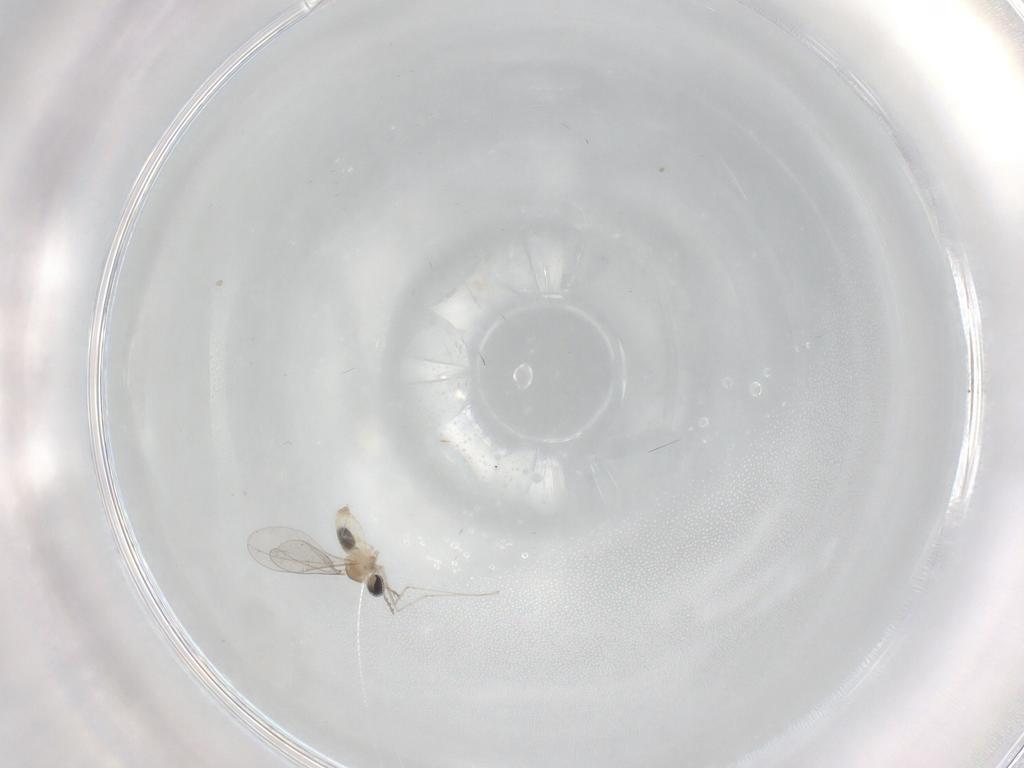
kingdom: Animalia
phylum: Arthropoda
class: Insecta
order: Diptera
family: Cecidomyiidae
